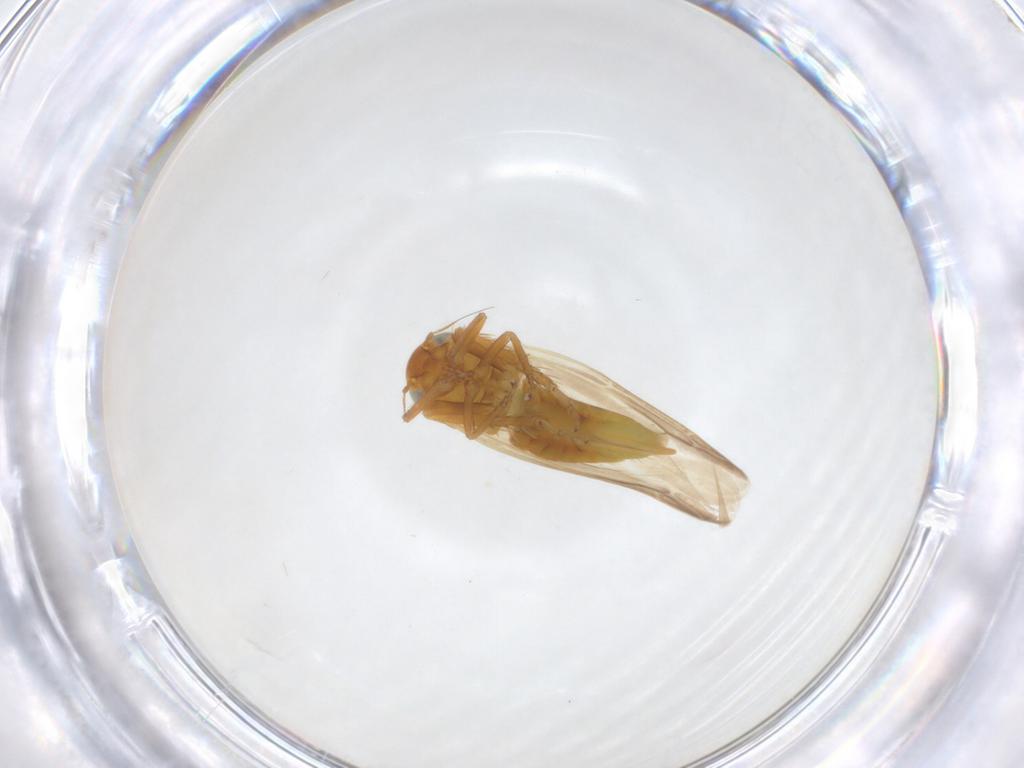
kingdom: Animalia
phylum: Arthropoda
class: Insecta
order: Hemiptera
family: Cicadellidae
